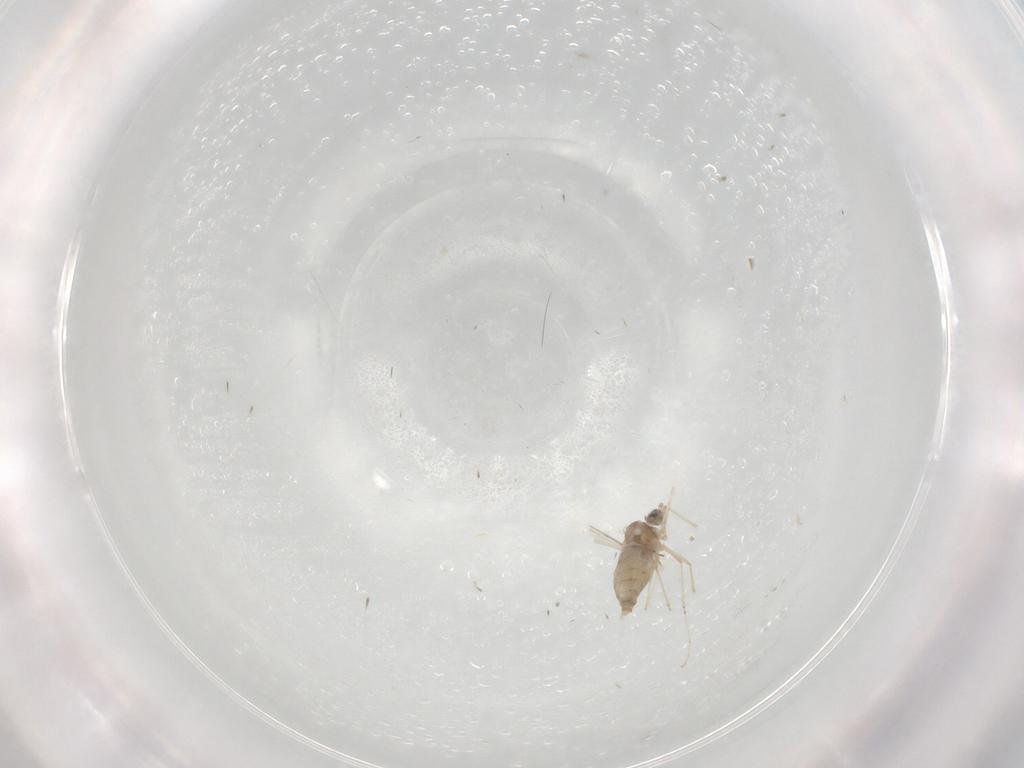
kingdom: Animalia
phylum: Arthropoda
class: Insecta
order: Diptera
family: Cecidomyiidae
